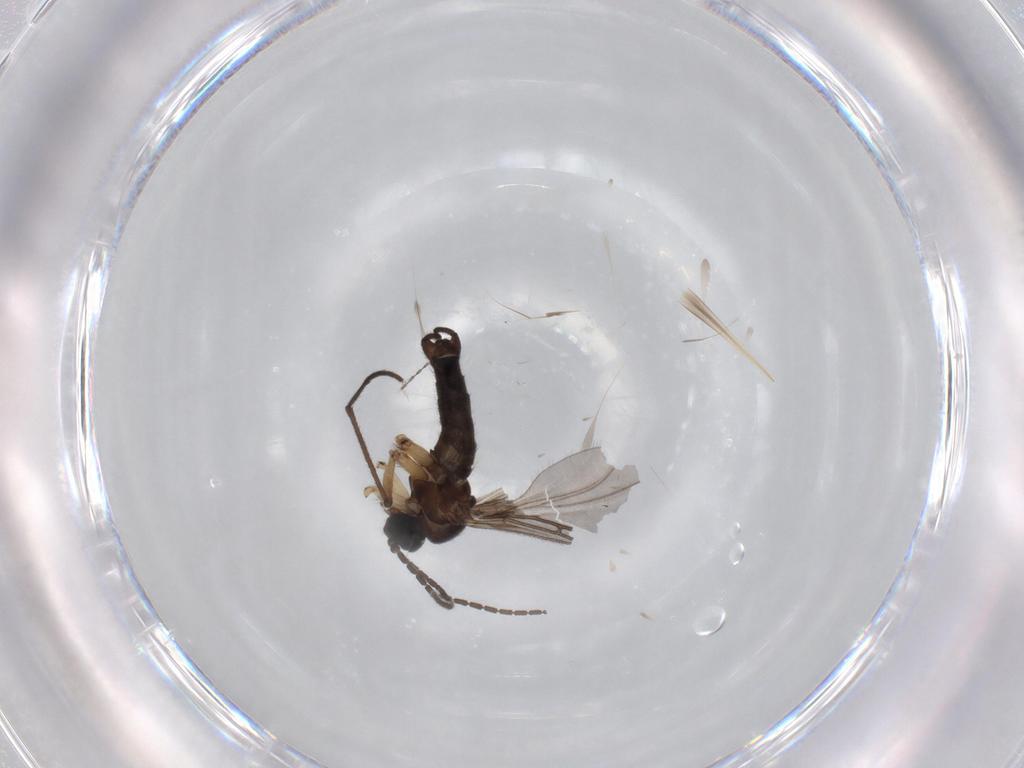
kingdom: Animalia
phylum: Arthropoda
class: Insecta
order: Diptera
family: Sciaridae
